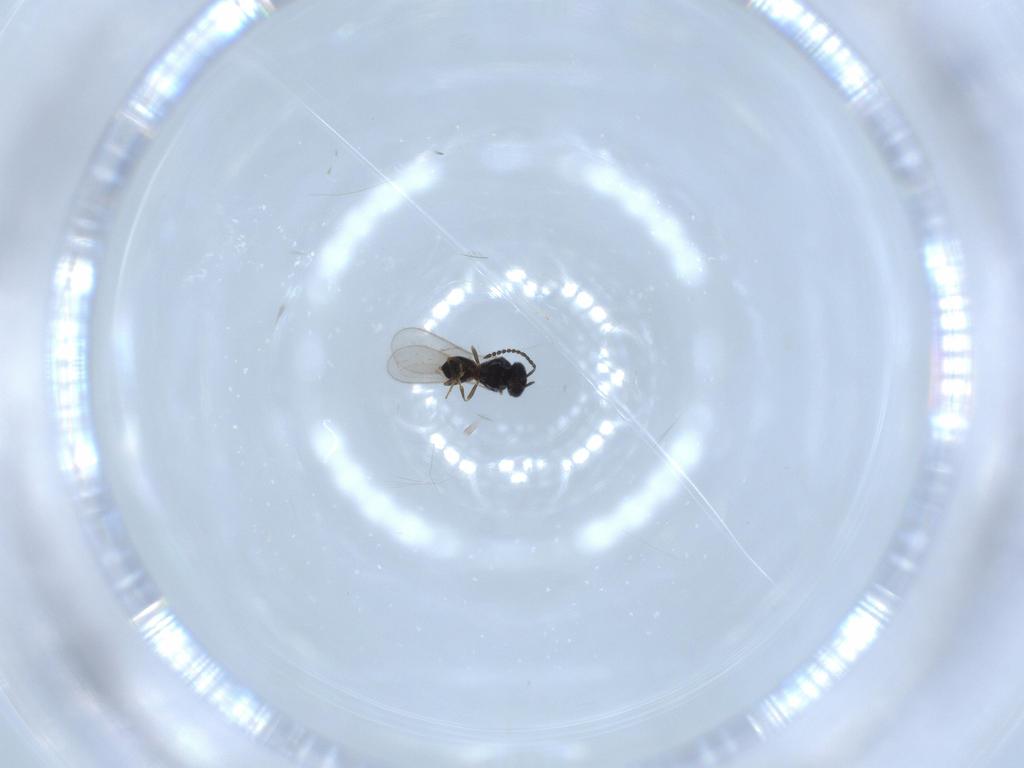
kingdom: Animalia
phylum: Arthropoda
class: Insecta
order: Hymenoptera
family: Scelionidae
